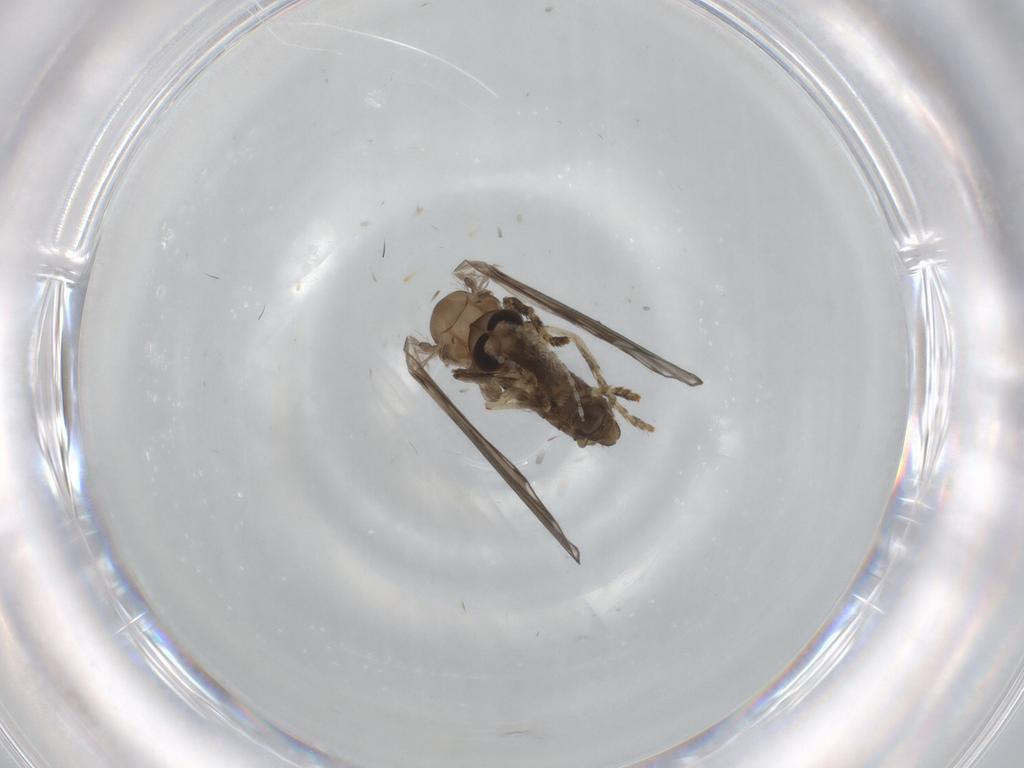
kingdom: Animalia
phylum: Arthropoda
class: Insecta
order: Diptera
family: Psychodidae
